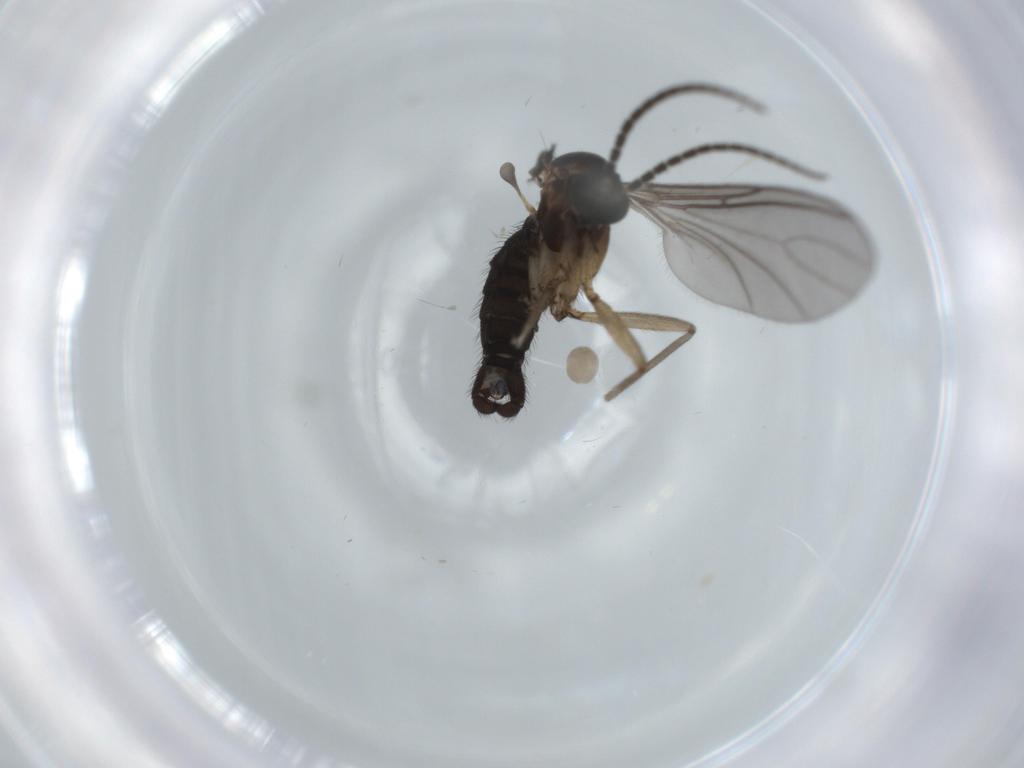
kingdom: Animalia
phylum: Arthropoda
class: Insecta
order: Diptera
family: Sciaridae
